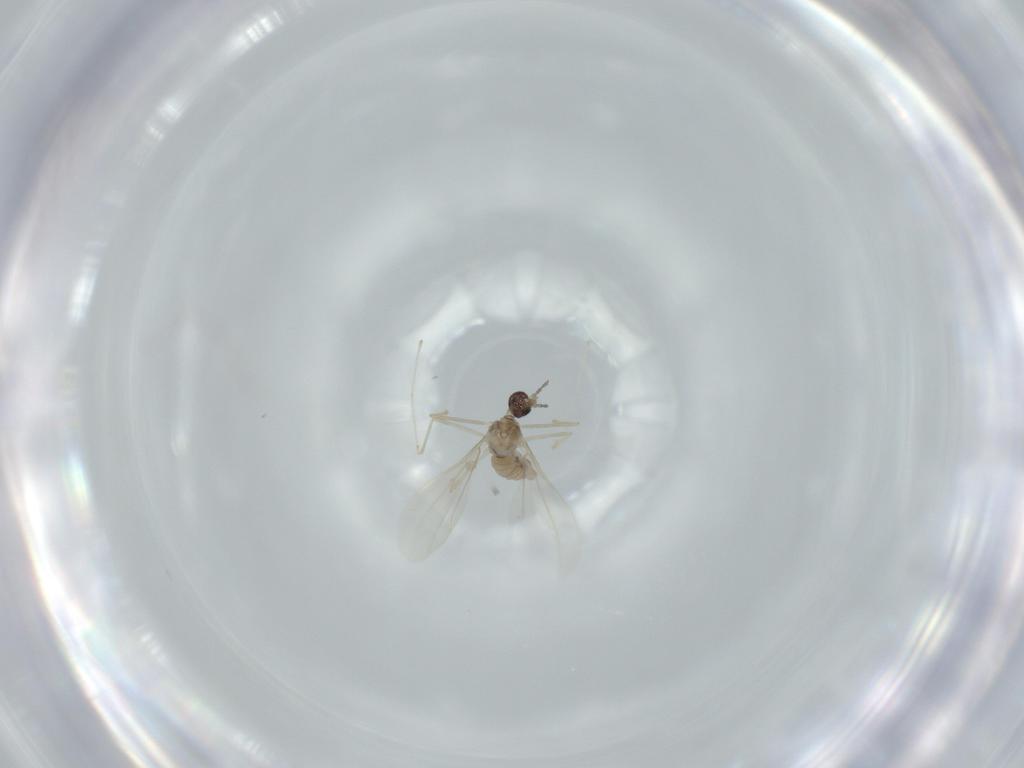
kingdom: Animalia
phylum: Arthropoda
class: Insecta
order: Diptera
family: Cecidomyiidae
